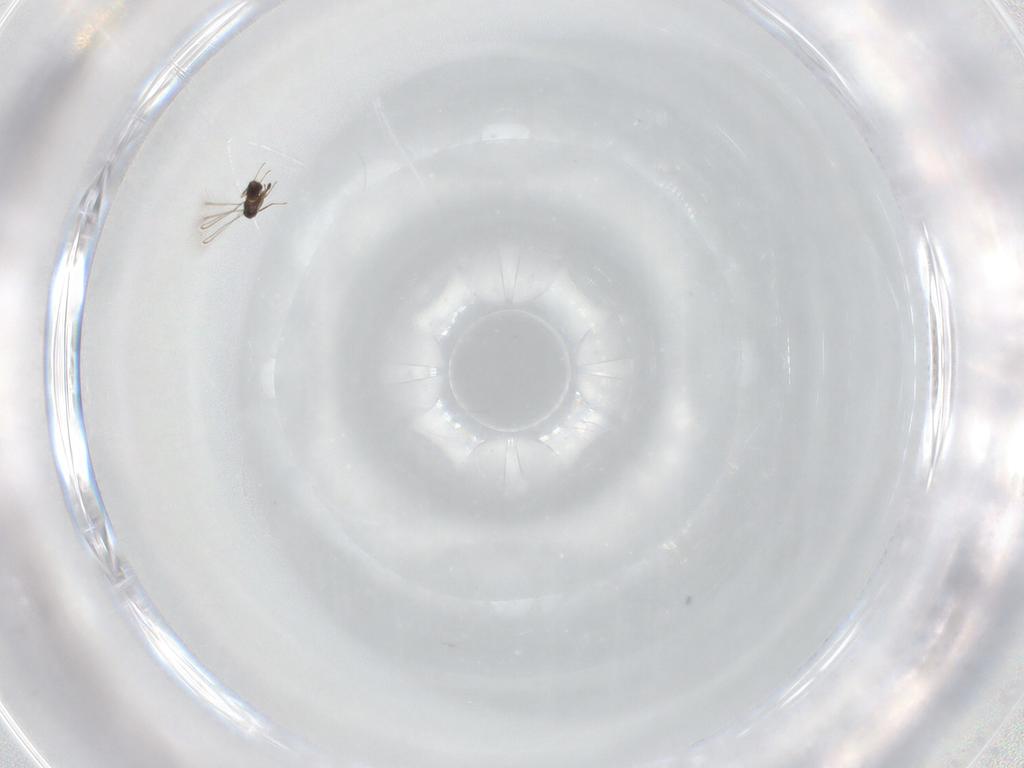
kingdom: Animalia
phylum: Arthropoda
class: Insecta
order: Hymenoptera
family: Mymaridae
